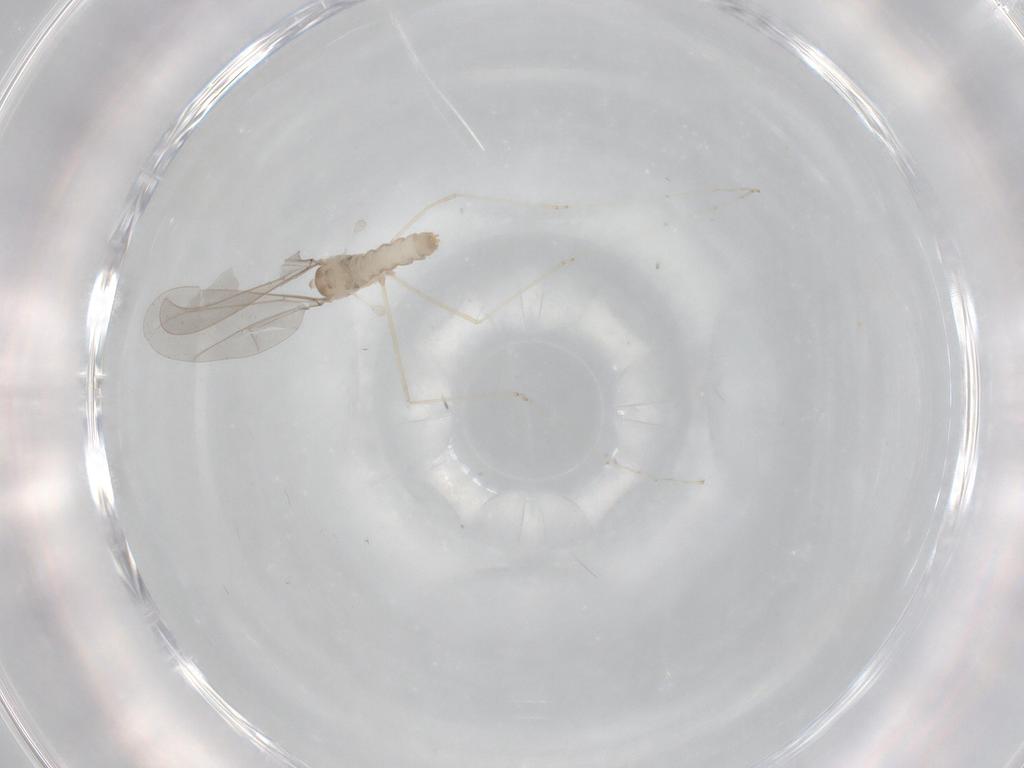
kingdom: Animalia
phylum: Arthropoda
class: Insecta
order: Diptera
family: Cecidomyiidae
